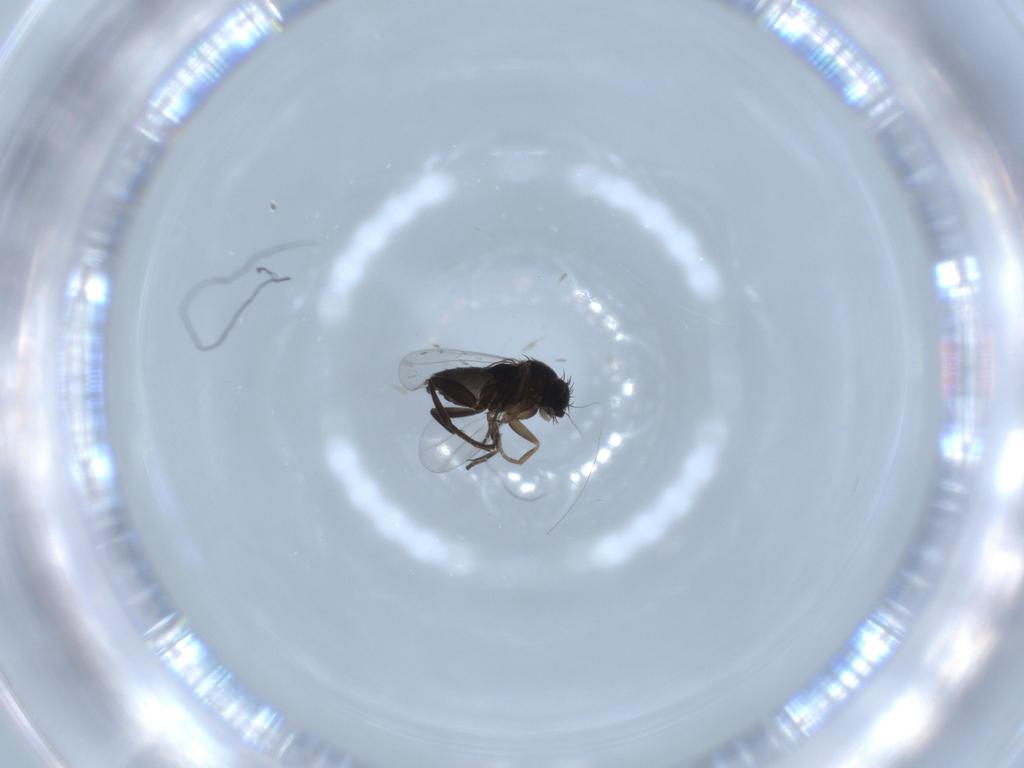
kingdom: Animalia
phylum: Arthropoda
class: Insecta
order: Diptera
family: Phoridae
